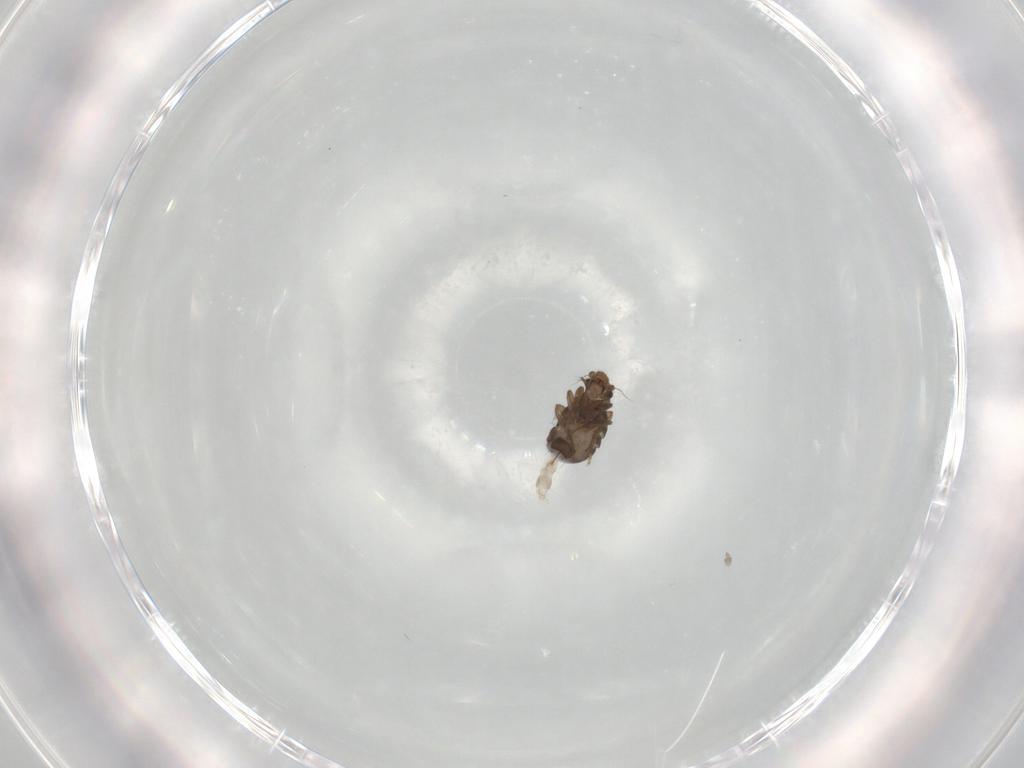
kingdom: Animalia
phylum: Arthropoda
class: Insecta
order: Diptera
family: Phoridae
